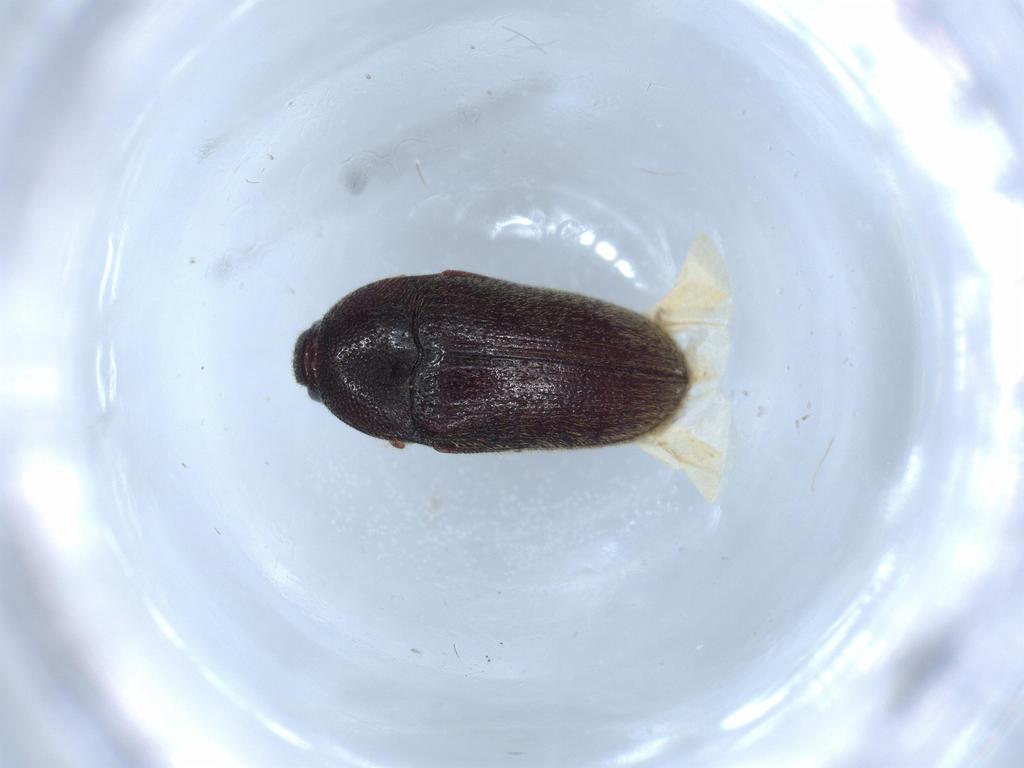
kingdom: Animalia
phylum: Arthropoda
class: Insecta
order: Coleoptera
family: Throscidae
